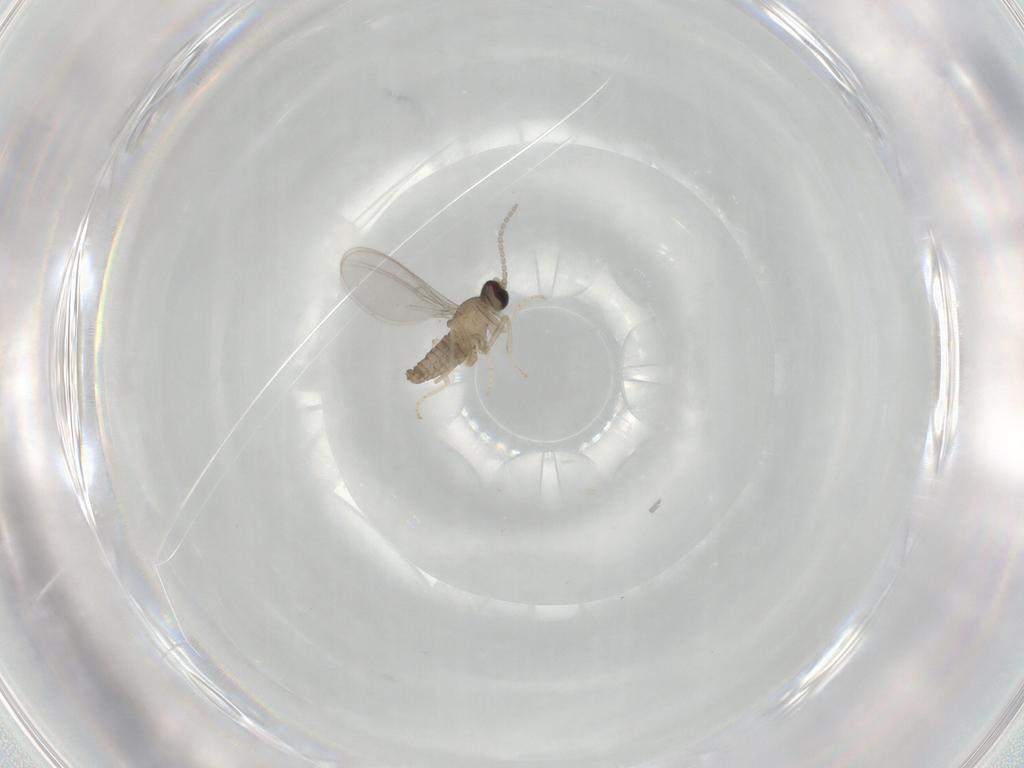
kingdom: Animalia
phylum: Arthropoda
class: Insecta
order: Diptera
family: Cecidomyiidae
